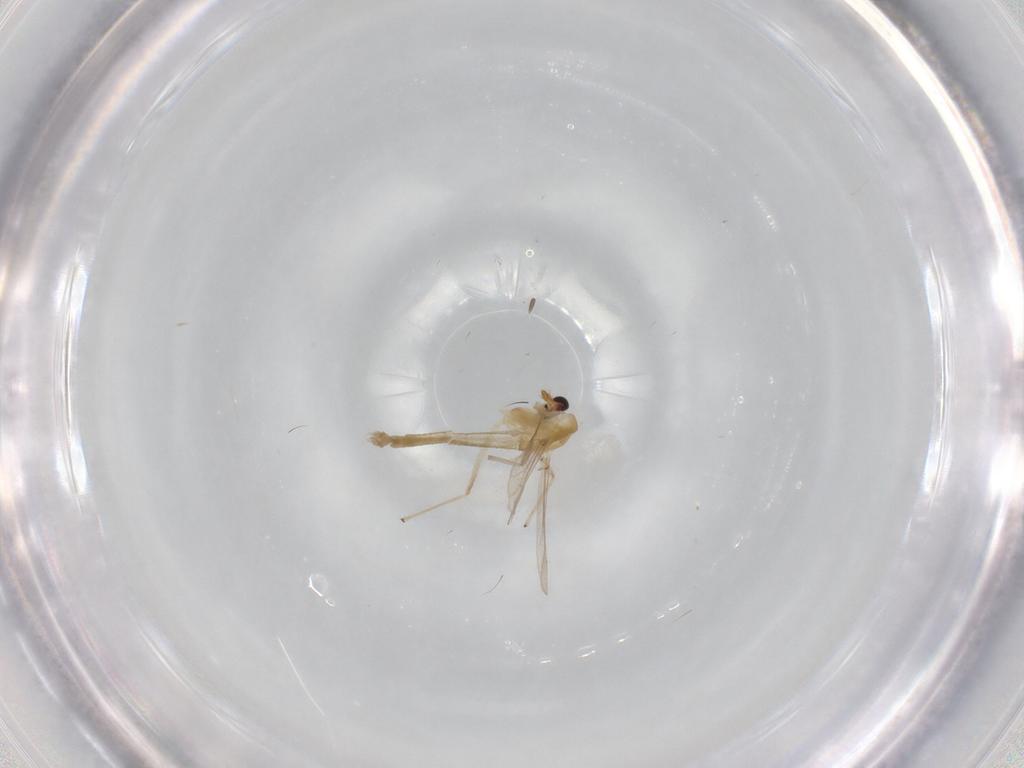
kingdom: Animalia
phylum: Arthropoda
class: Insecta
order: Diptera
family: Chironomidae
